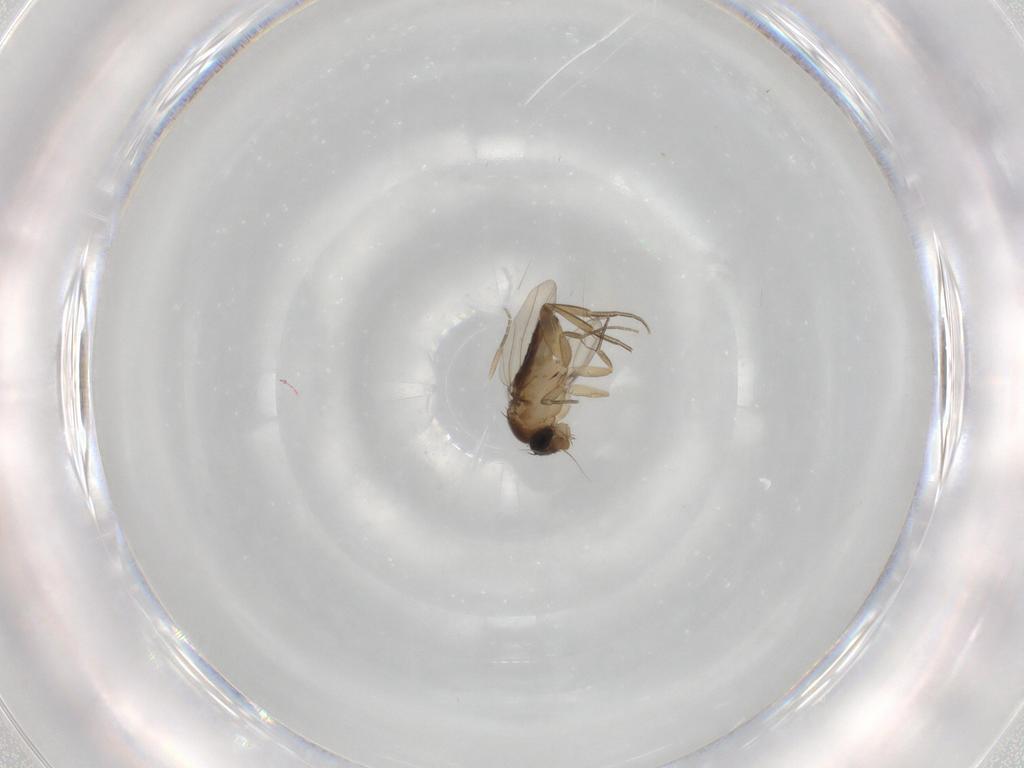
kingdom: Animalia
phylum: Arthropoda
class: Insecta
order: Diptera
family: Phoridae
